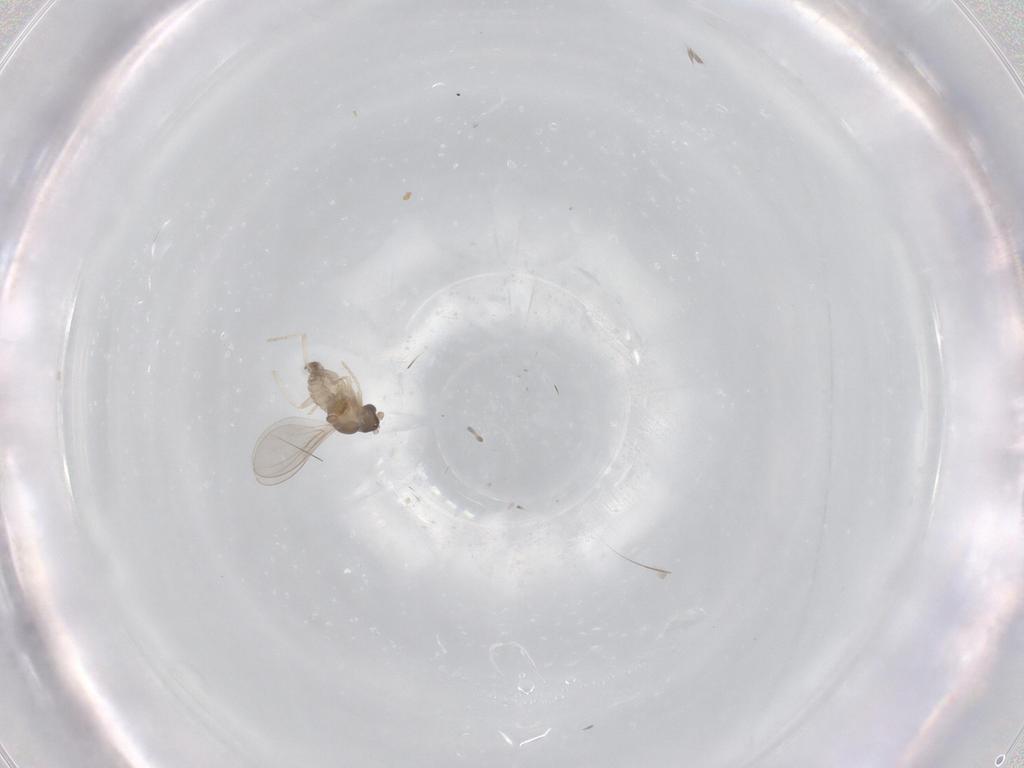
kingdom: Animalia
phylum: Arthropoda
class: Insecta
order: Diptera
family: Cecidomyiidae
